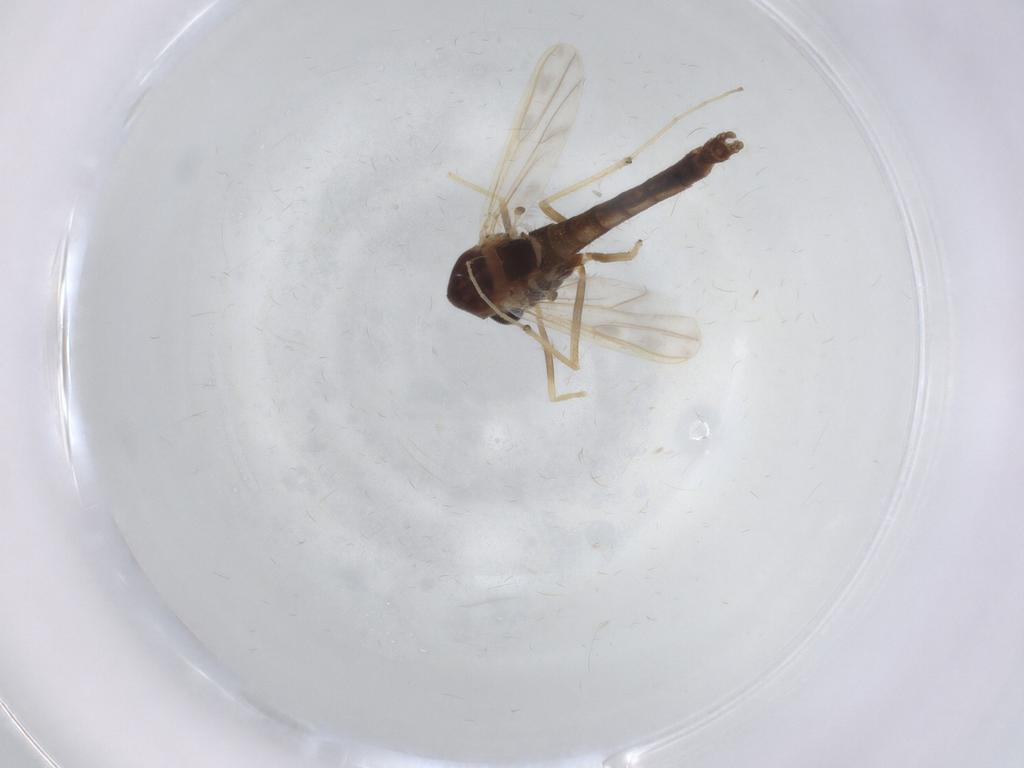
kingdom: Animalia
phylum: Arthropoda
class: Insecta
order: Diptera
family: Chironomidae
